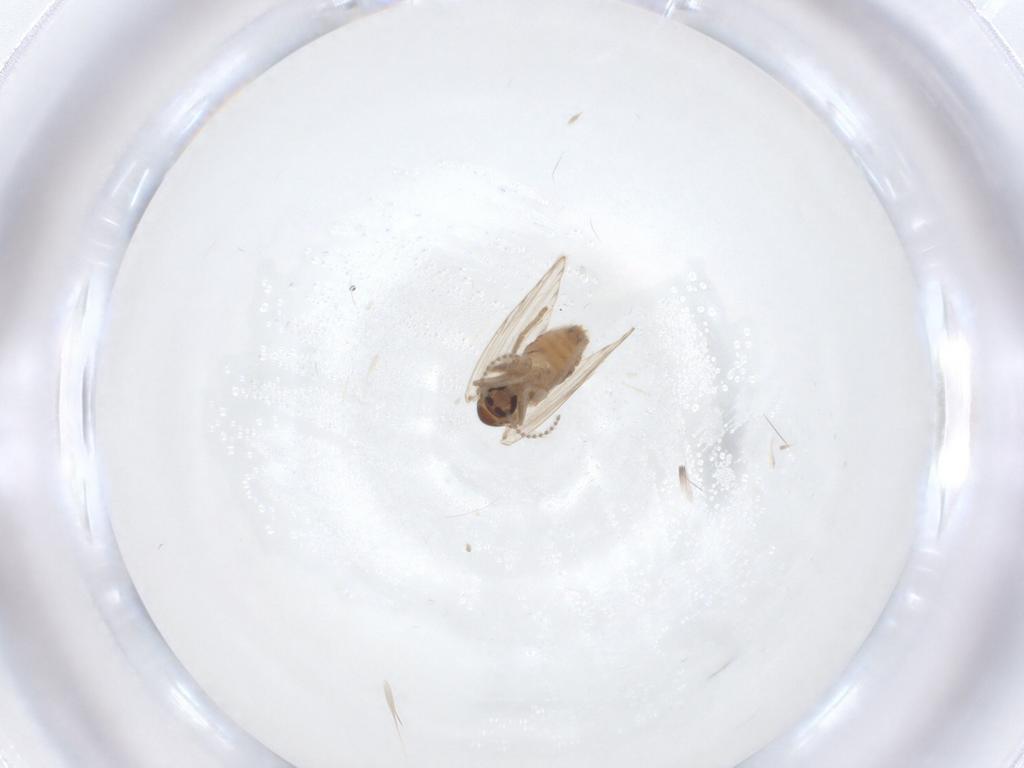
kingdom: Animalia
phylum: Arthropoda
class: Insecta
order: Diptera
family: Psychodidae
